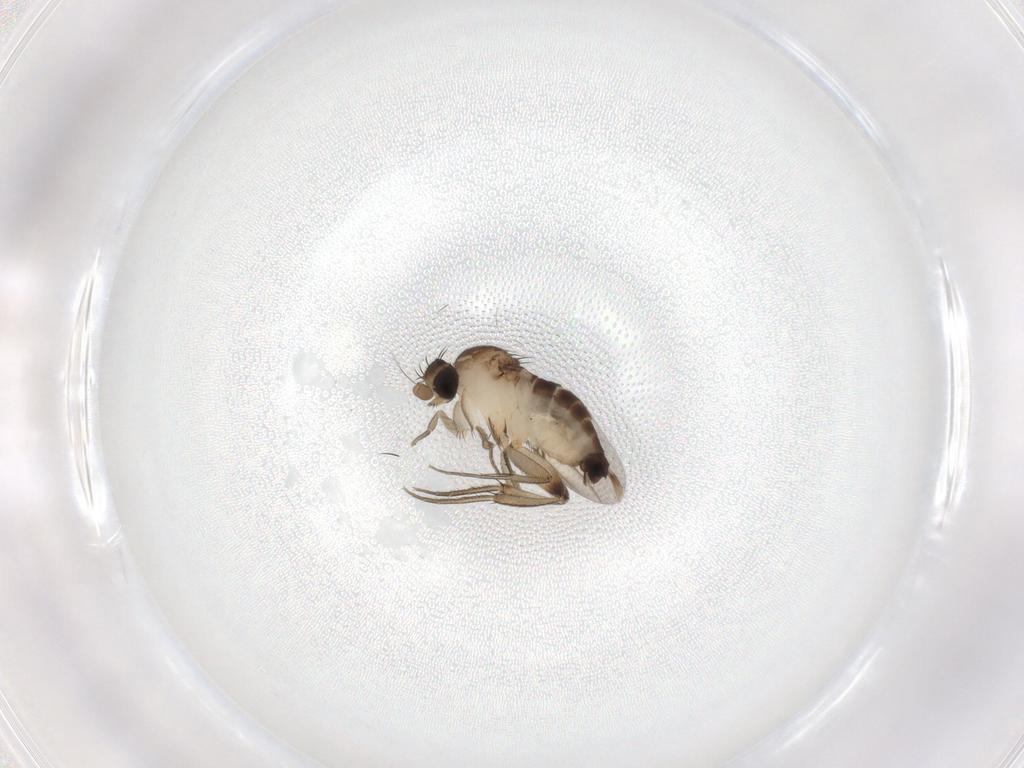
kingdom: Animalia
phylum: Arthropoda
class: Insecta
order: Diptera
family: Phoridae
